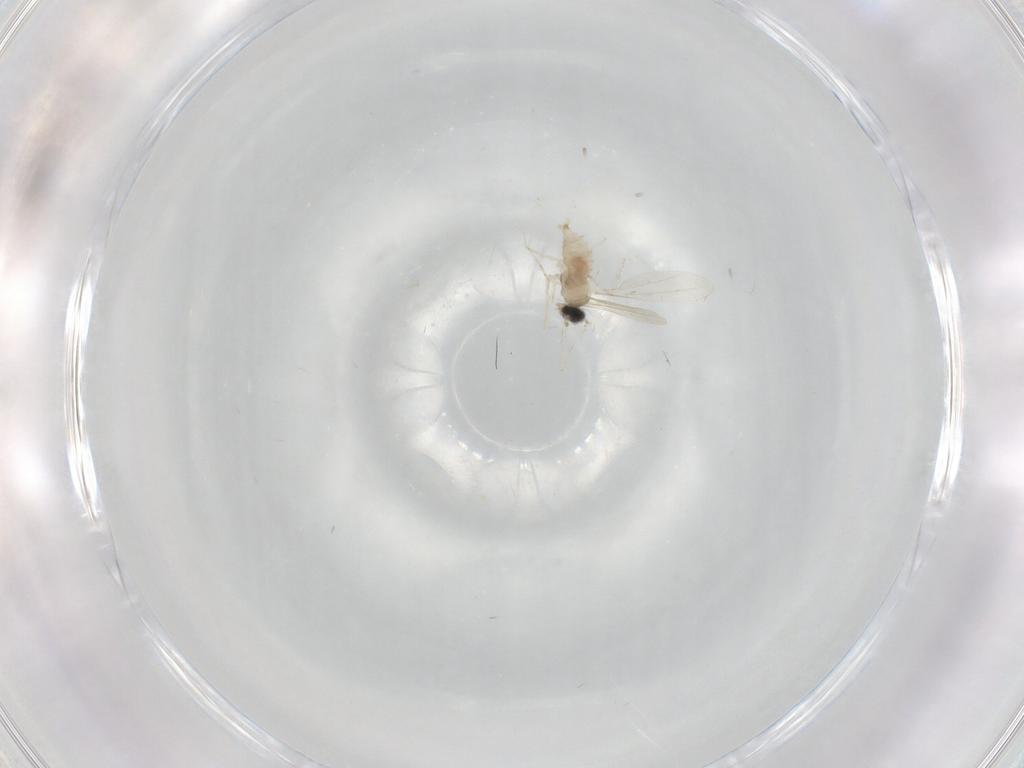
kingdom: Animalia
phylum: Arthropoda
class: Insecta
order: Diptera
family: Cecidomyiidae
